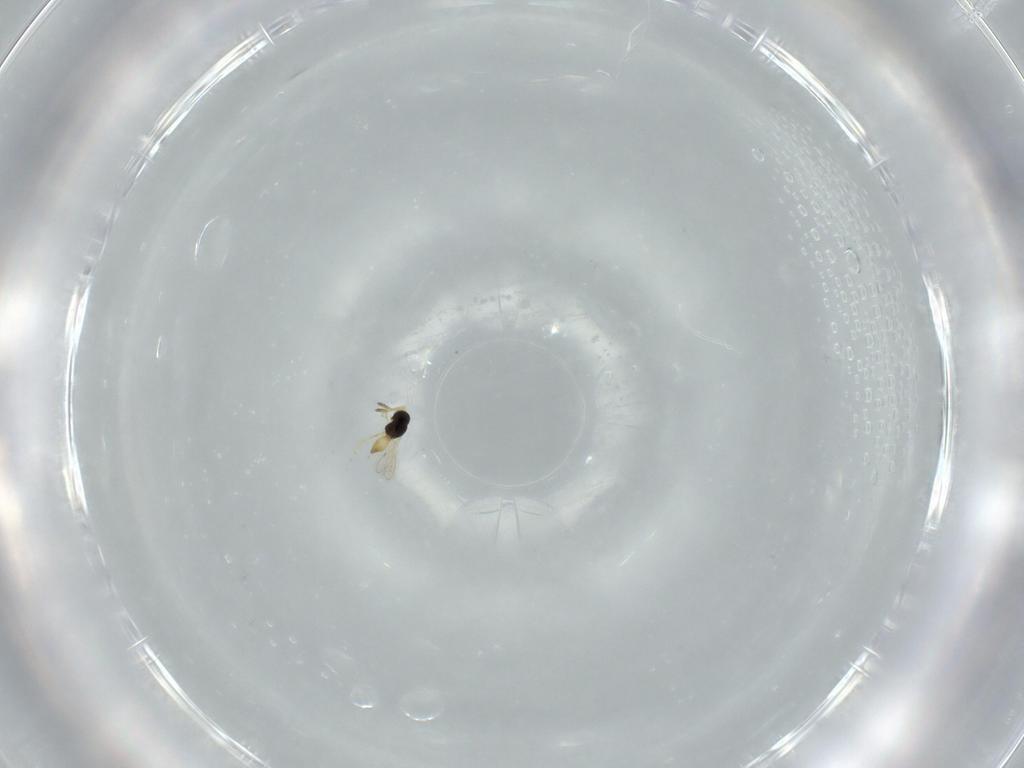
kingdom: Animalia
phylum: Arthropoda
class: Insecta
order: Hymenoptera
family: Scelionidae
